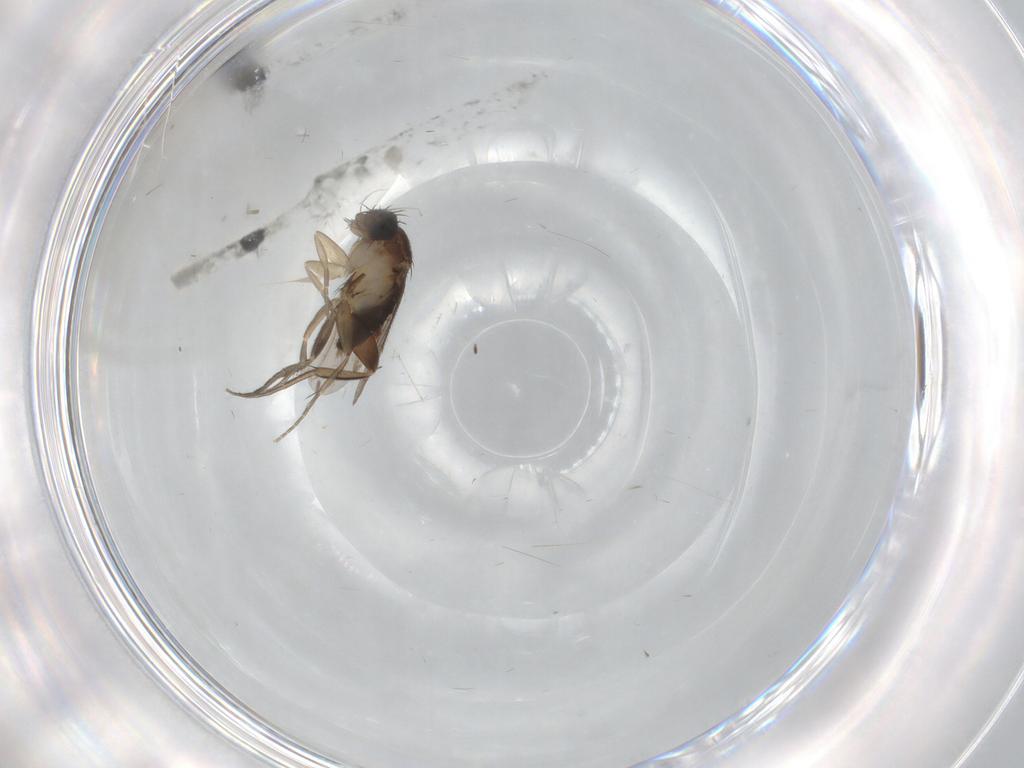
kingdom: Animalia
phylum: Arthropoda
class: Insecta
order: Diptera
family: Phoridae
